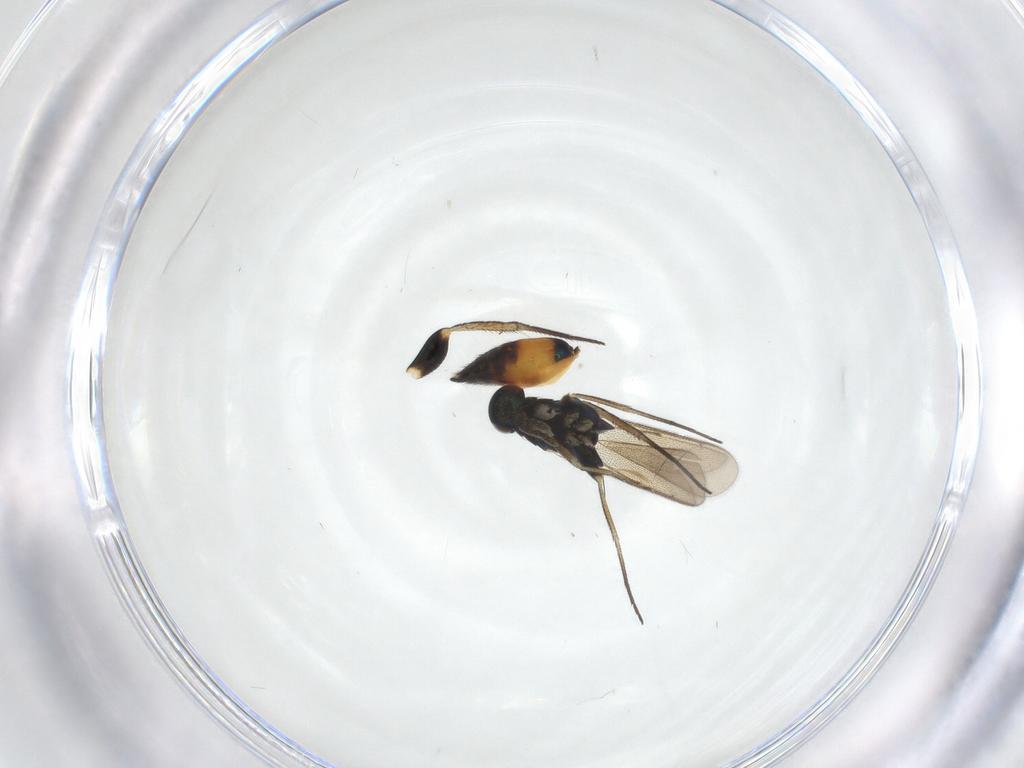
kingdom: Animalia
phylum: Arthropoda
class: Insecta
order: Hymenoptera
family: Eulophidae
